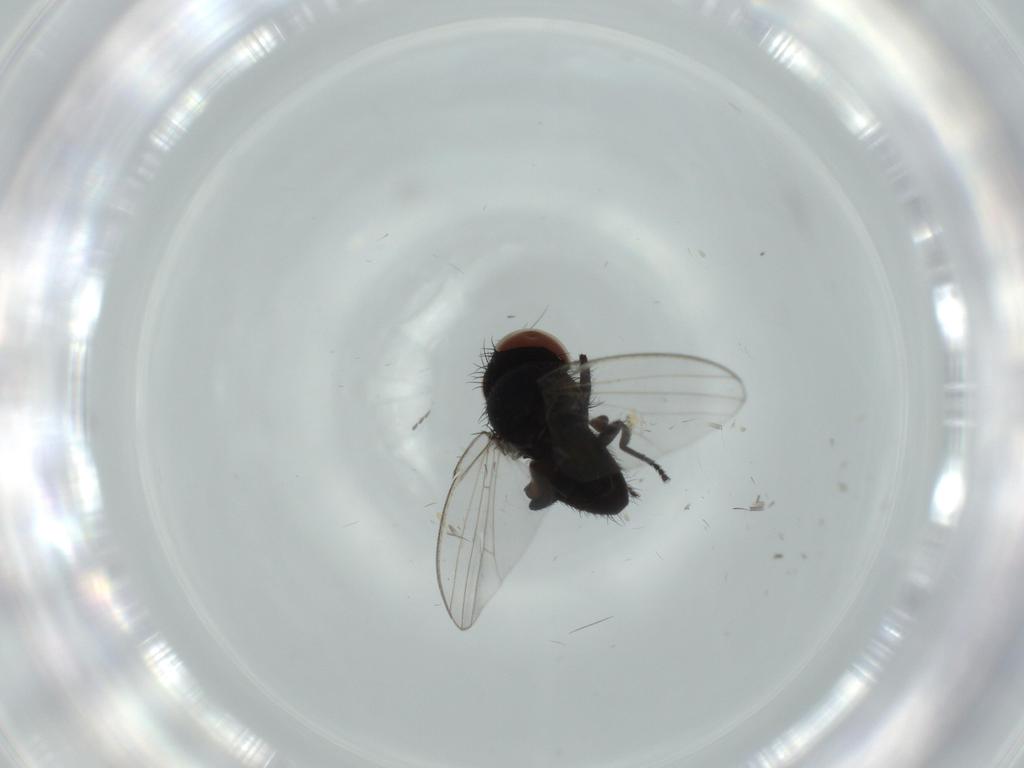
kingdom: Animalia
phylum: Arthropoda
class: Insecta
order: Diptera
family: Milichiidae
